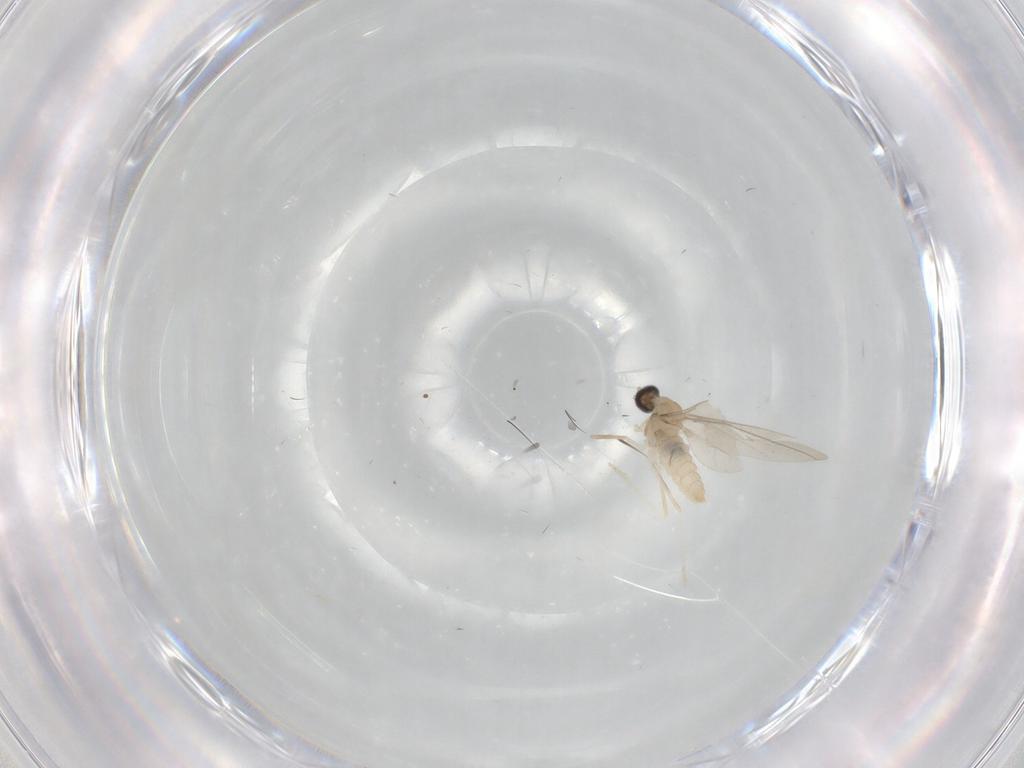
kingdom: Animalia
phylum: Arthropoda
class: Insecta
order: Diptera
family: Cecidomyiidae
